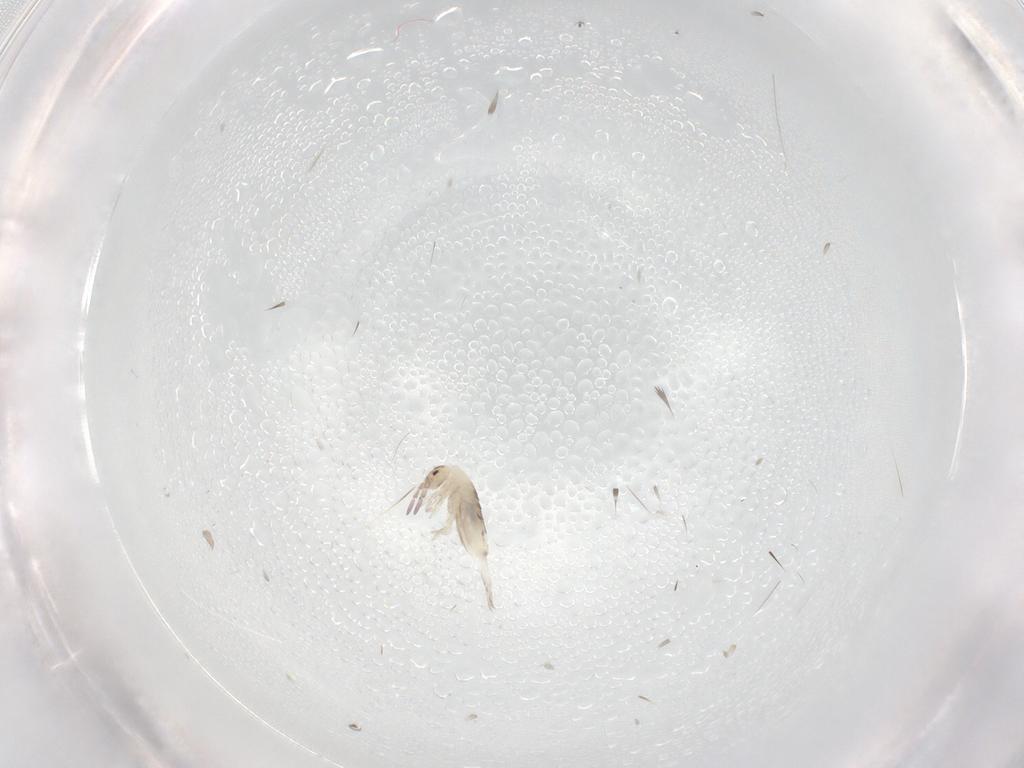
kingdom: Animalia
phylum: Arthropoda
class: Collembola
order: Entomobryomorpha
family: Entomobryidae
